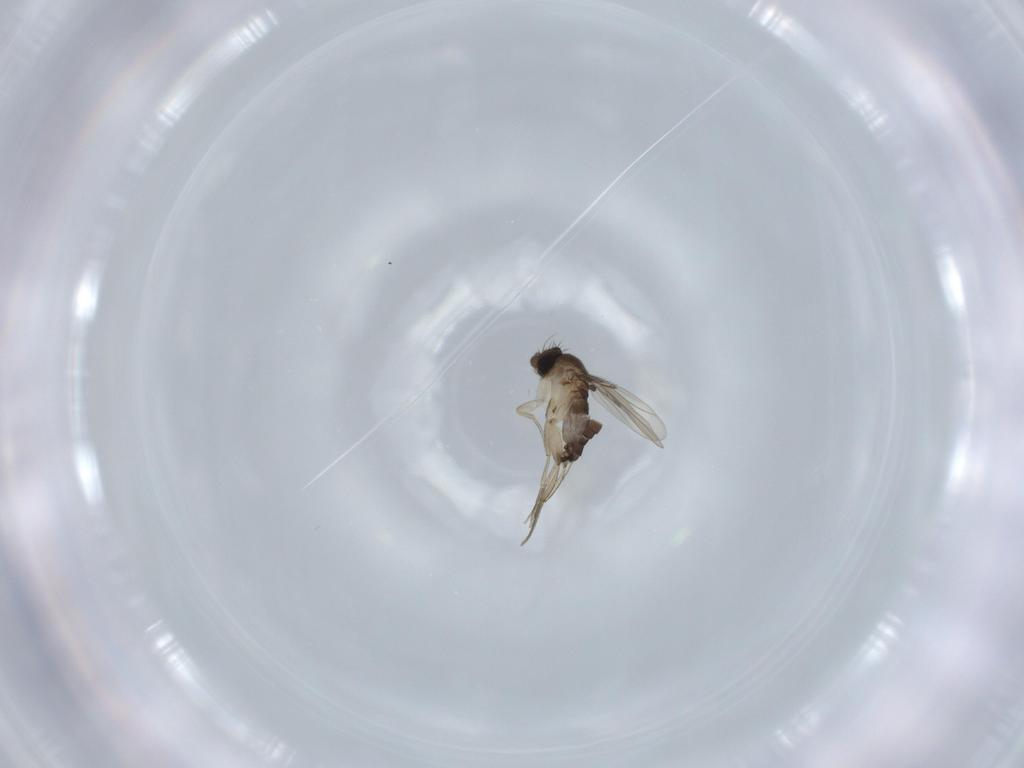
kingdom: Animalia
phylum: Arthropoda
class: Insecta
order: Diptera
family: Phoridae
